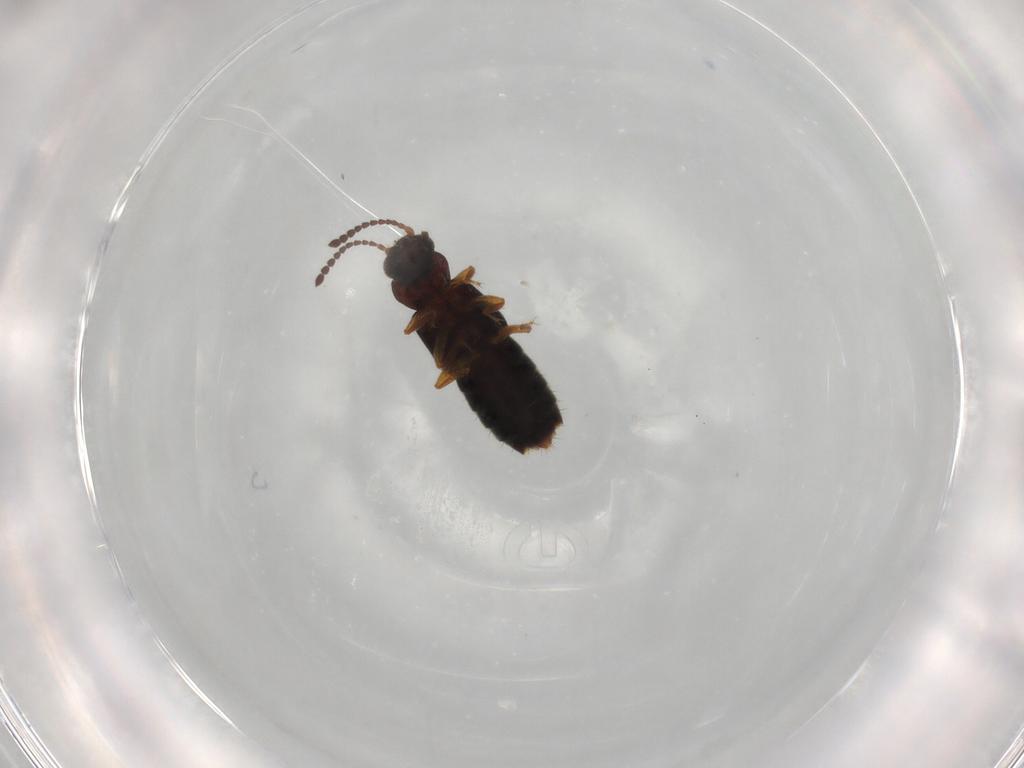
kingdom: Animalia
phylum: Arthropoda
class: Insecta
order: Coleoptera
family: Staphylinidae
